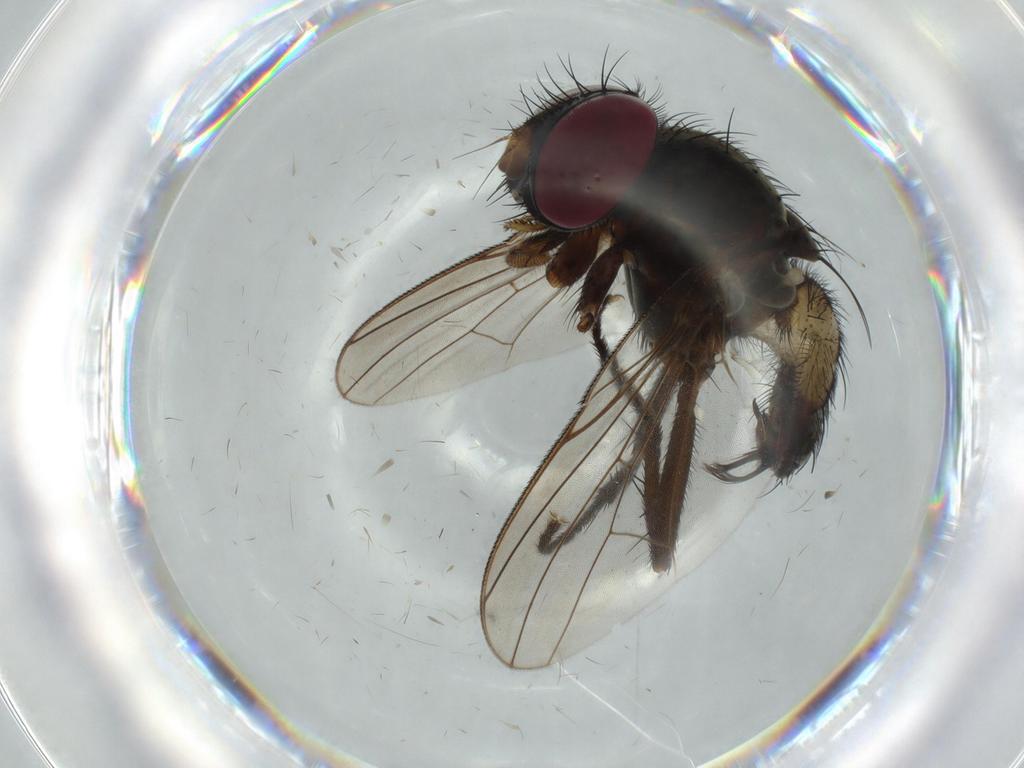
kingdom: Animalia
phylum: Arthropoda
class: Insecta
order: Diptera
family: Fannia
